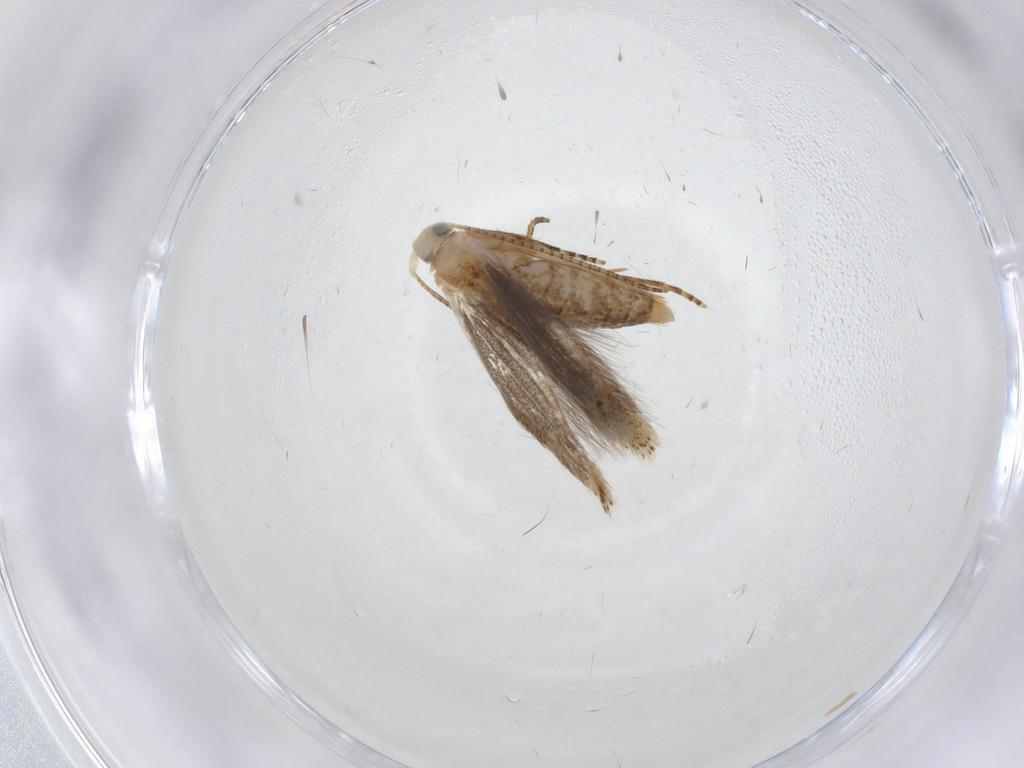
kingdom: Animalia
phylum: Arthropoda
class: Insecta
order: Lepidoptera
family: Bucculatricidae
